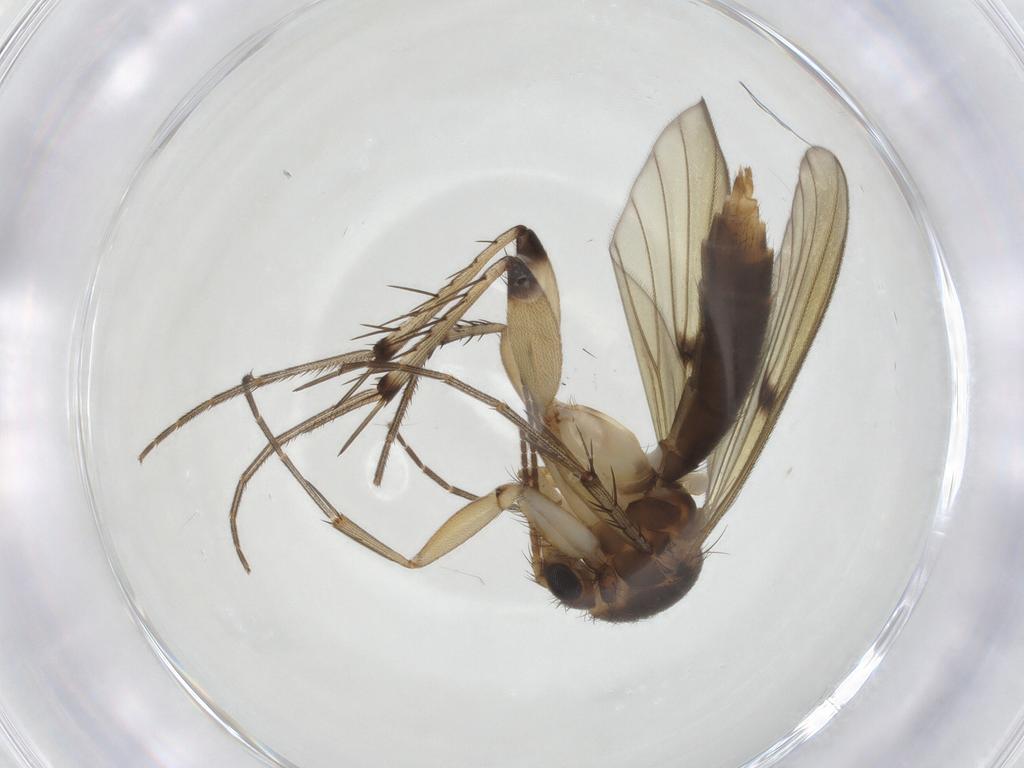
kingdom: Animalia
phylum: Arthropoda
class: Insecta
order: Diptera
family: Mycetophilidae
